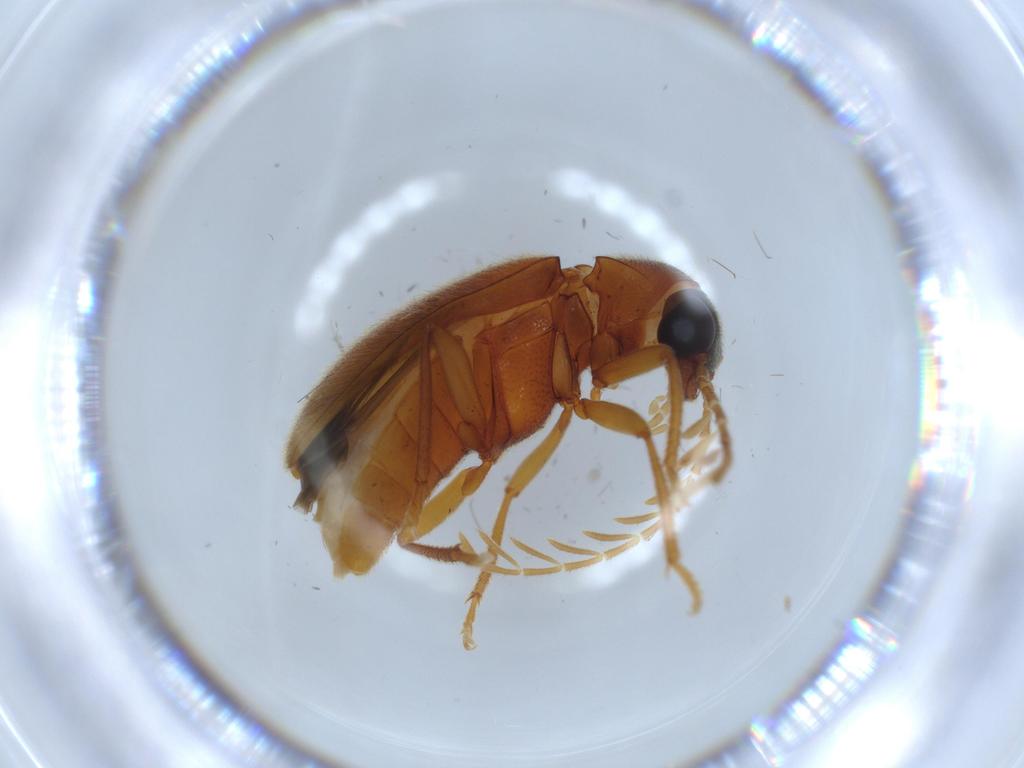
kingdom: Animalia
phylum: Arthropoda
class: Insecta
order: Coleoptera
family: Ptilodactylidae
